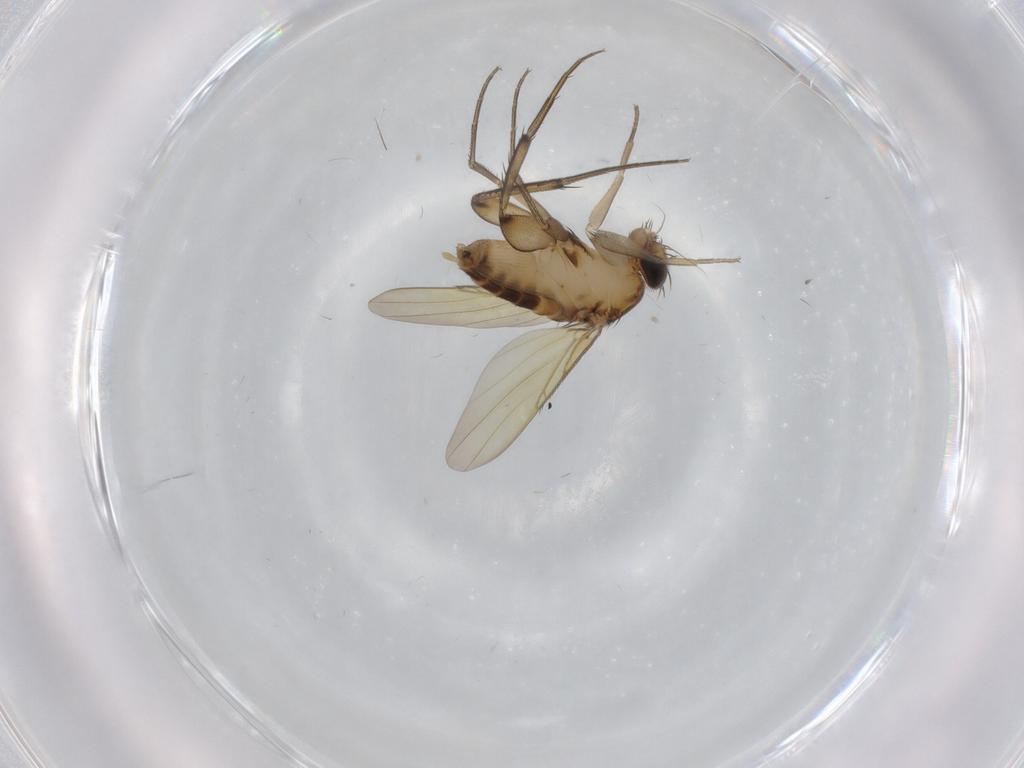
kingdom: Animalia
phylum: Arthropoda
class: Insecta
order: Diptera
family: Phoridae
